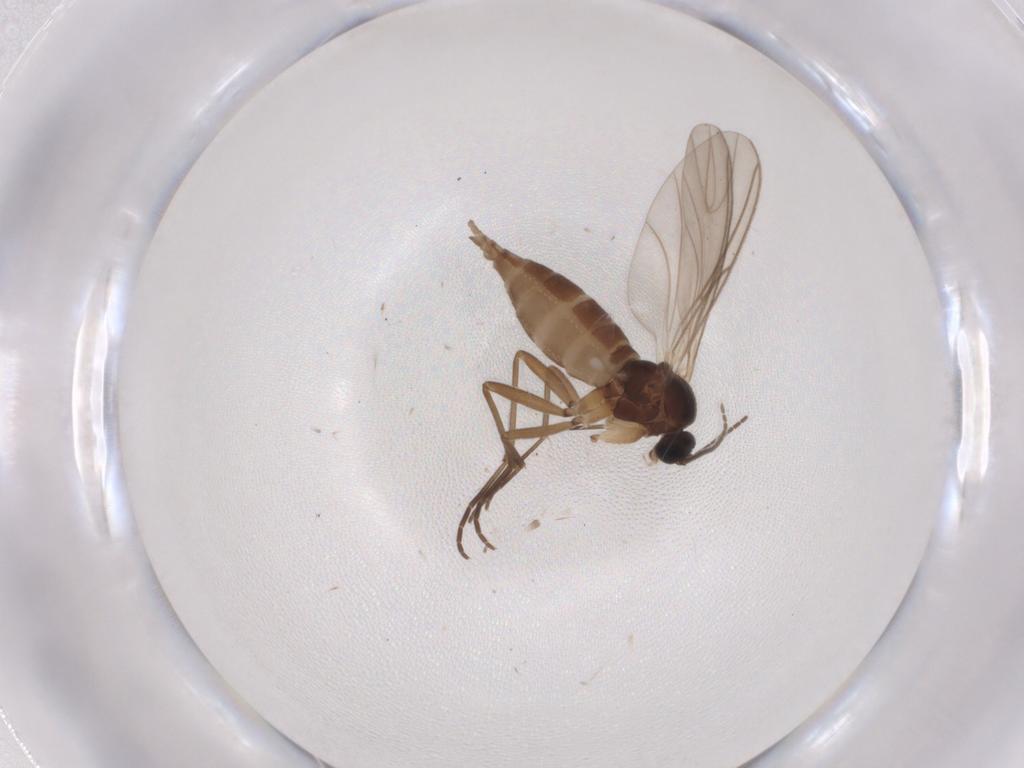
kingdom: Animalia
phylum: Arthropoda
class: Insecta
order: Diptera
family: Sciaridae
